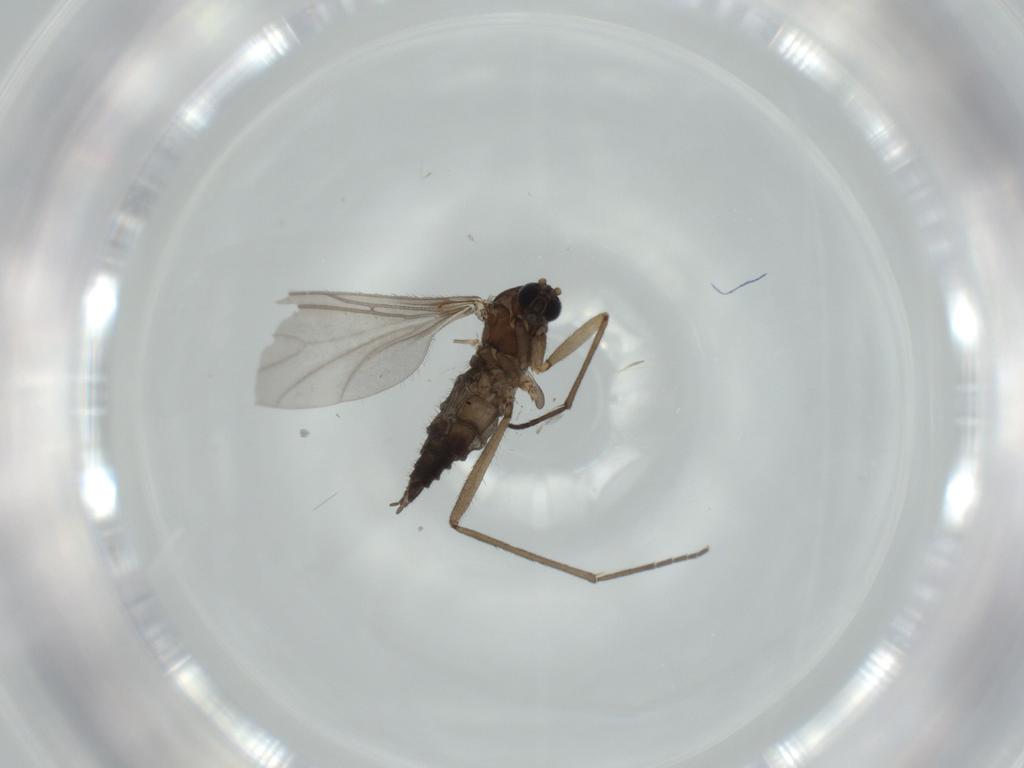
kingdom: Animalia
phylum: Arthropoda
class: Insecta
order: Diptera
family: Sciaridae
